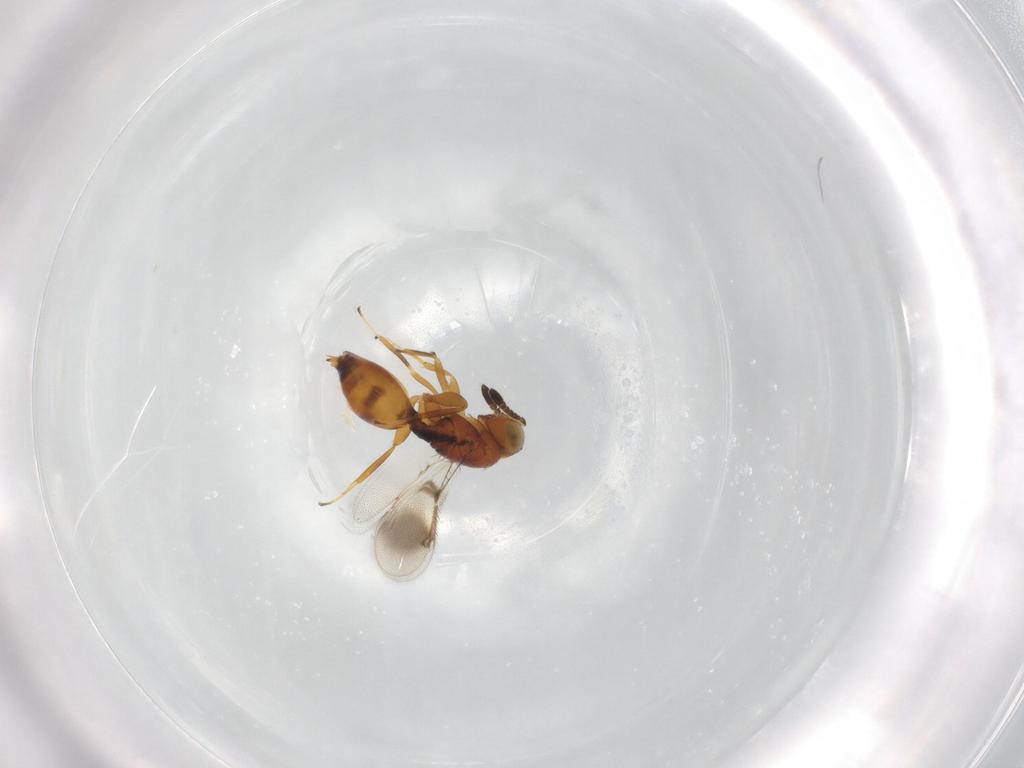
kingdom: Animalia
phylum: Arthropoda
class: Insecta
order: Hymenoptera
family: Moranilidae
